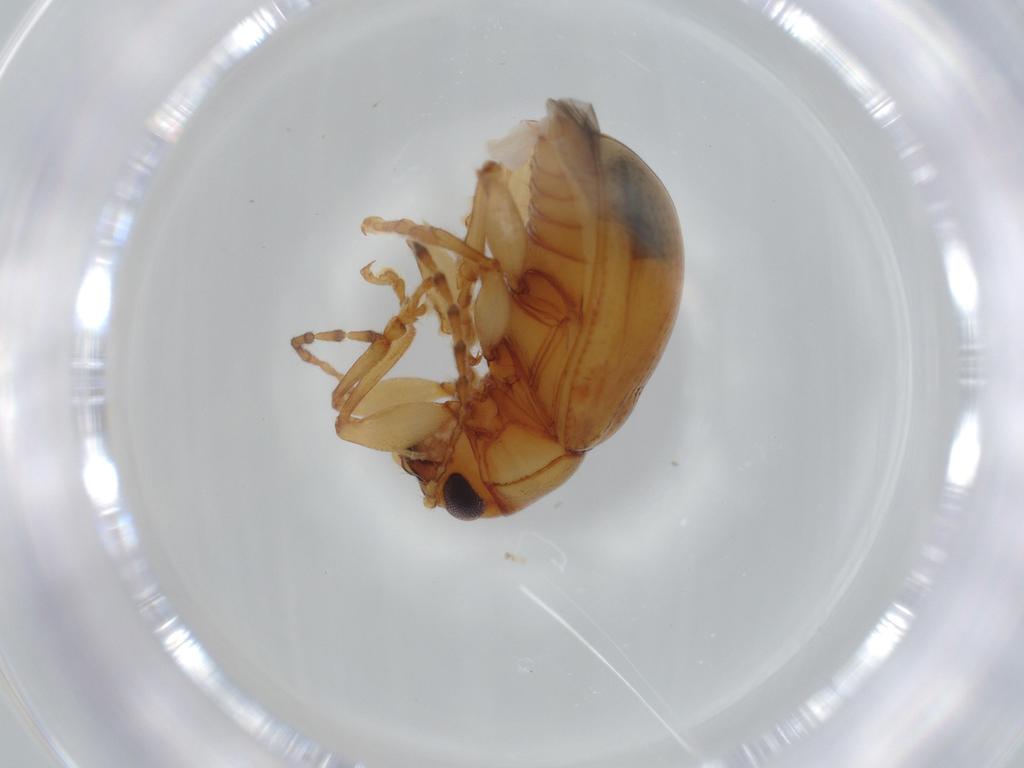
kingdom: Animalia
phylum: Arthropoda
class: Insecta
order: Coleoptera
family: Chrysomelidae
